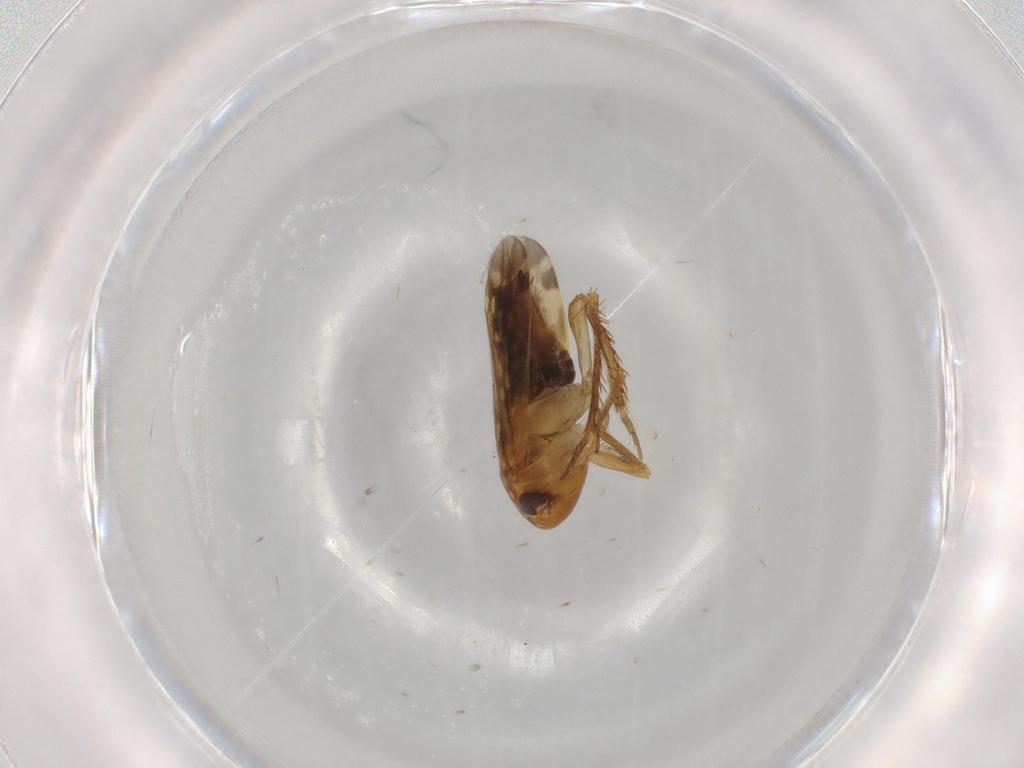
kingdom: Animalia
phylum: Arthropoda
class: Insecta
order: Hemiptera
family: Cicadellidae
